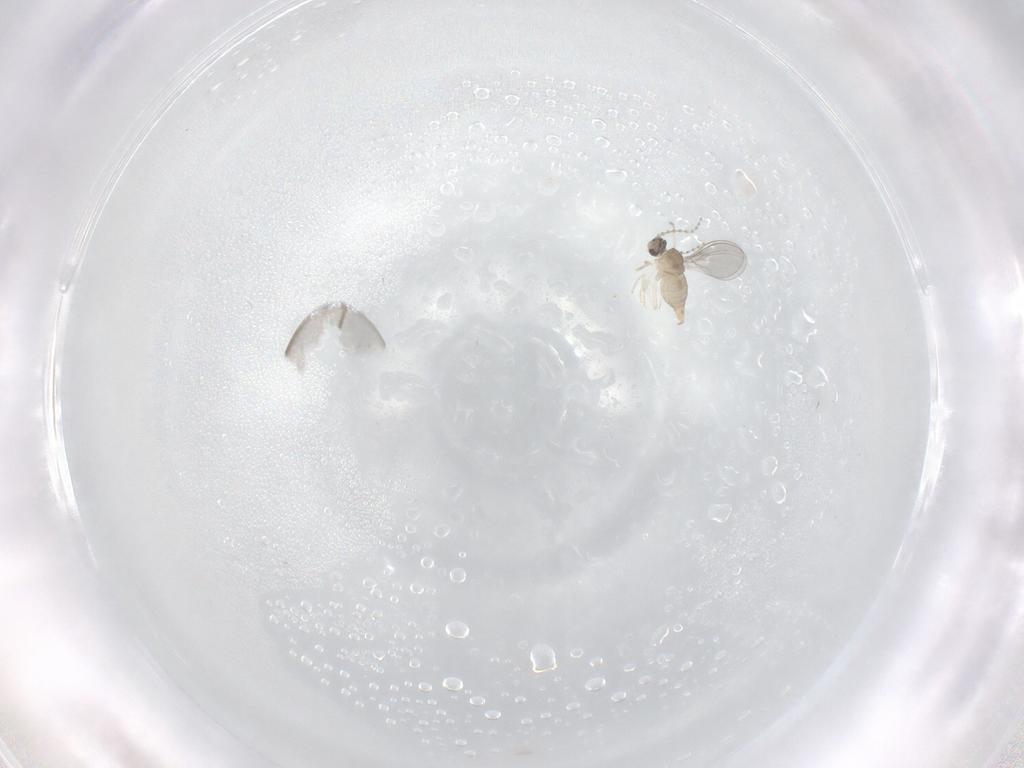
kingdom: Animalia
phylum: Arthropoda
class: Insecta
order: Diptera
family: Cecidomyiidae
